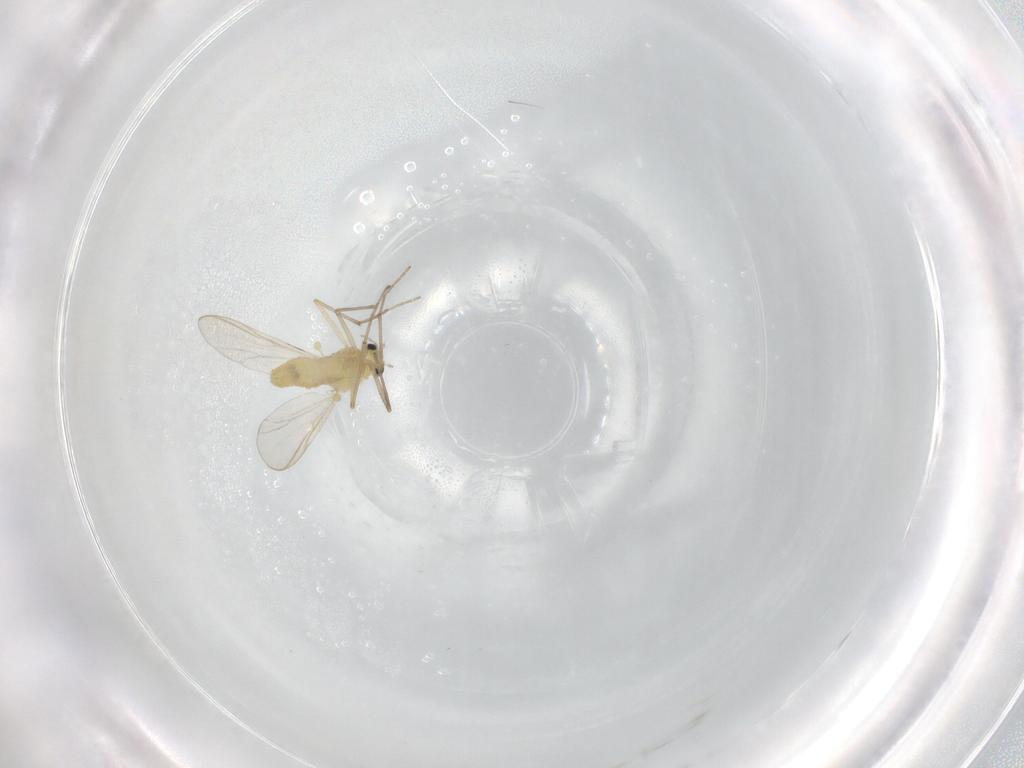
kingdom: Animalia
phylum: Arthropoda
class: Insecta
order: Diptera
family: Chironomidae
